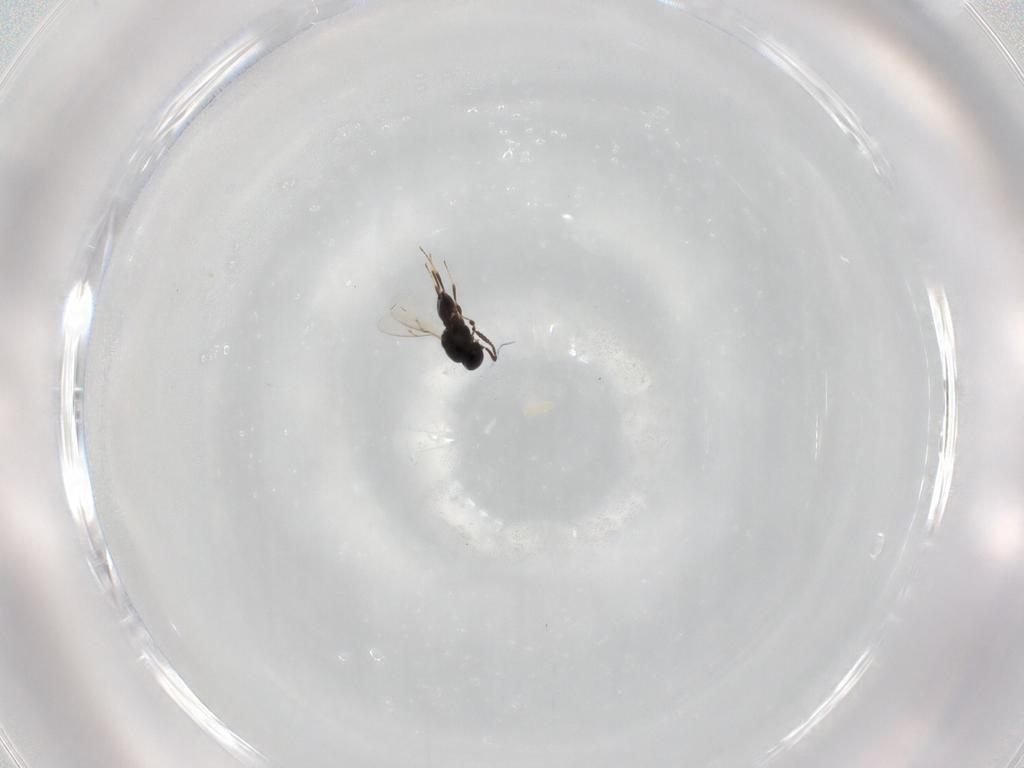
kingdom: Animalia
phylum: Arthropoda
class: Insecta
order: Hymenoptera
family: Scelionidae
